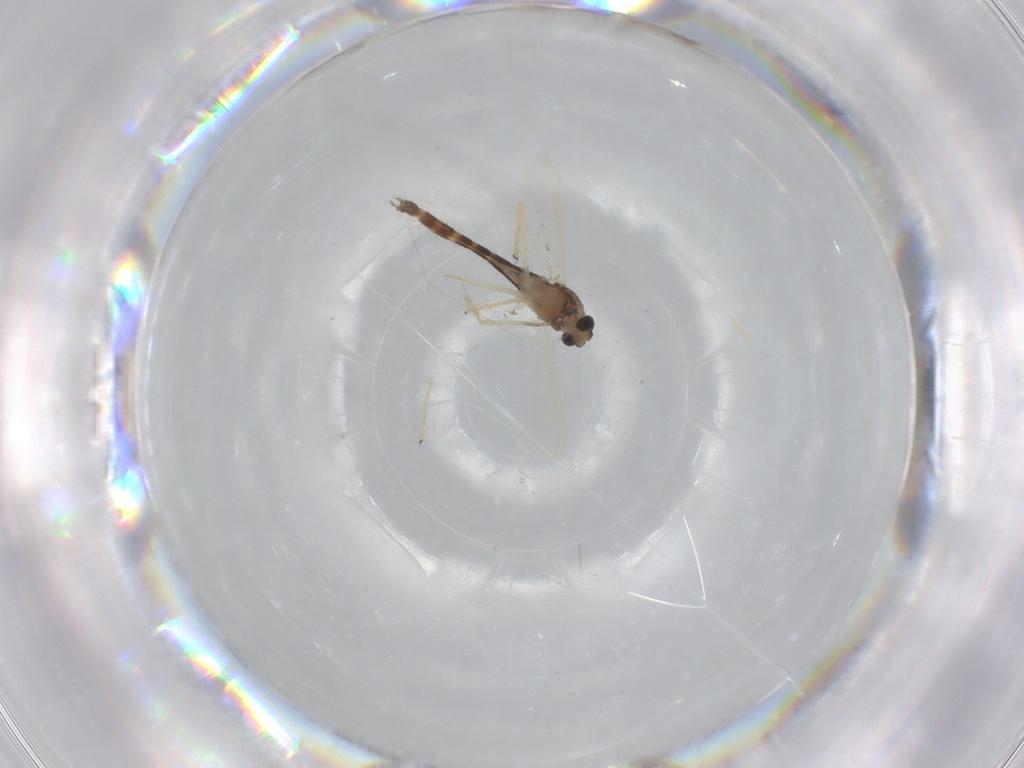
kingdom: Animalia
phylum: Arthropoda
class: Insecta
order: Diptera
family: Chironomidae
